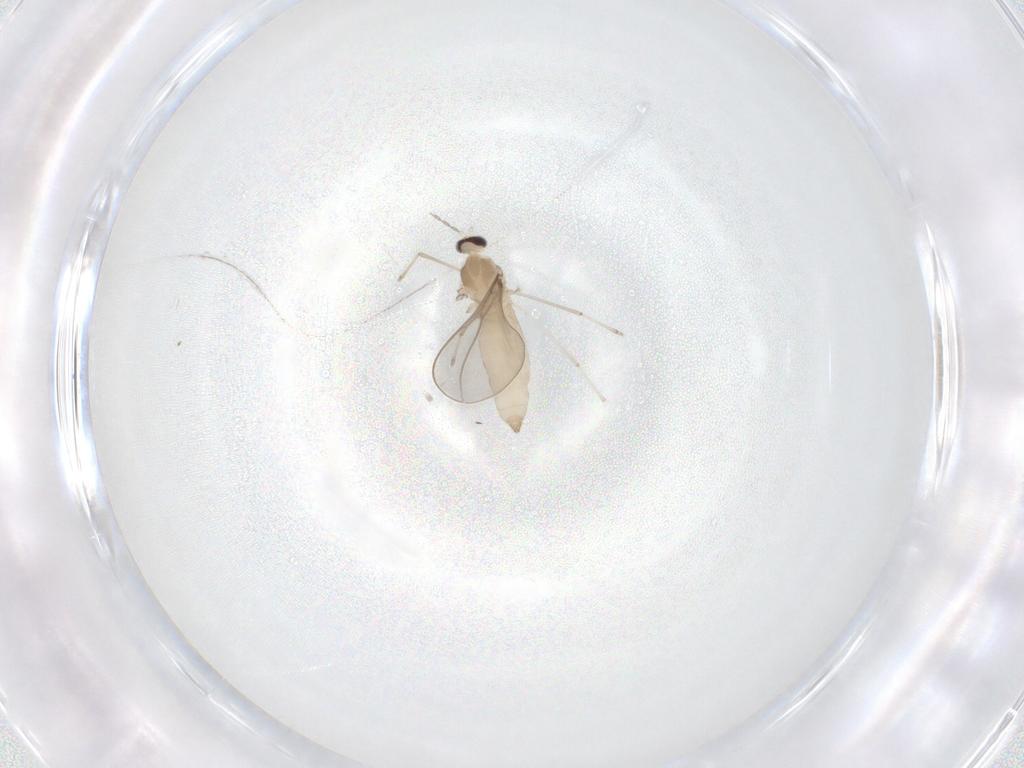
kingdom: Animalia
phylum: Arthropoda
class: Insecta
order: Diptera
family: Cecidomyiidae
